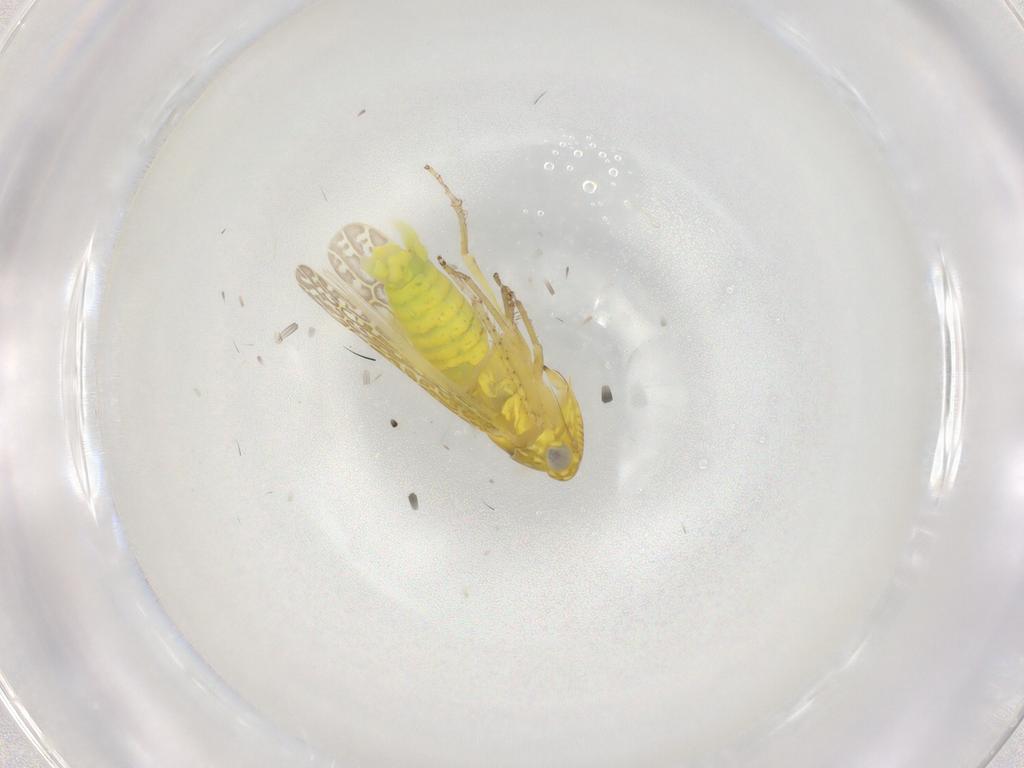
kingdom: Animalia
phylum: Arthropoda
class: Insecta
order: Hemiptera
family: Cicadellidae
